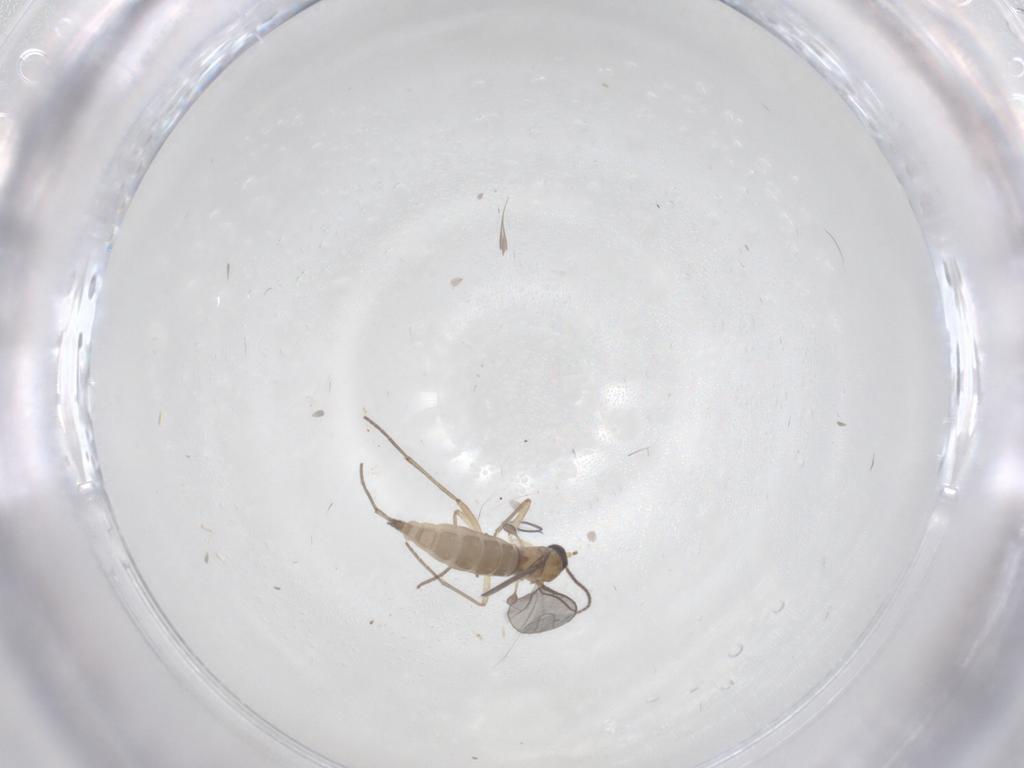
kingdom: Animalia
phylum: Arthropoda
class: Insecta
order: Diptera
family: Sciaridae
